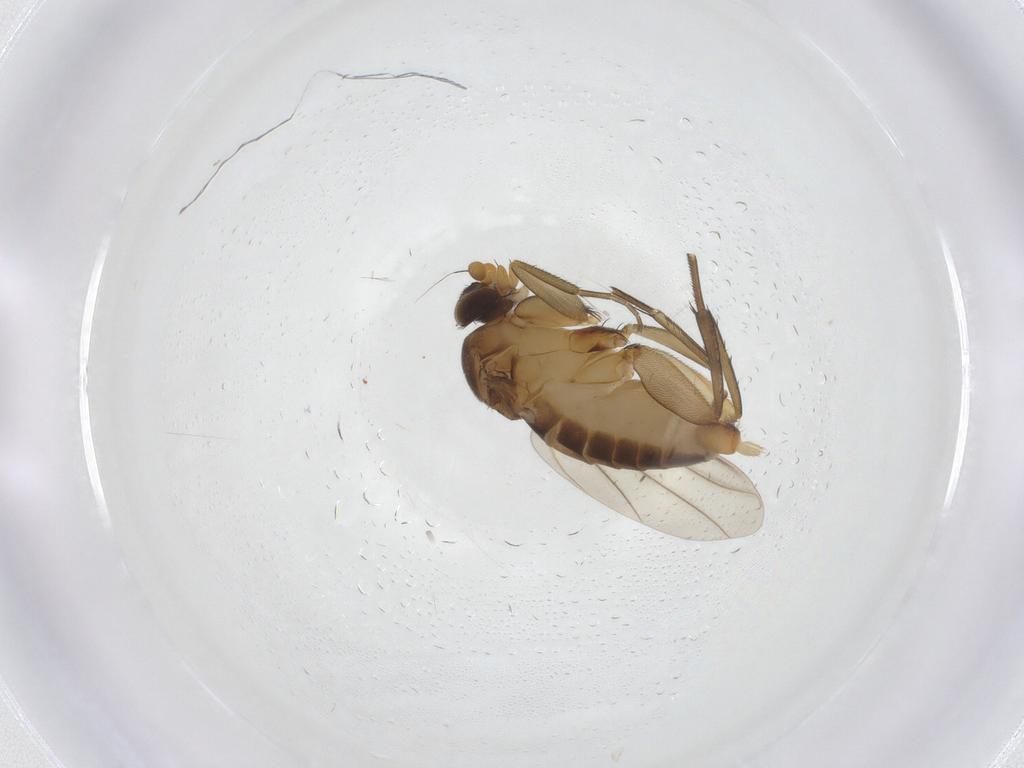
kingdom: Animalia
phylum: Arthropoda
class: Insecta
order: Diptera
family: Phoridae
